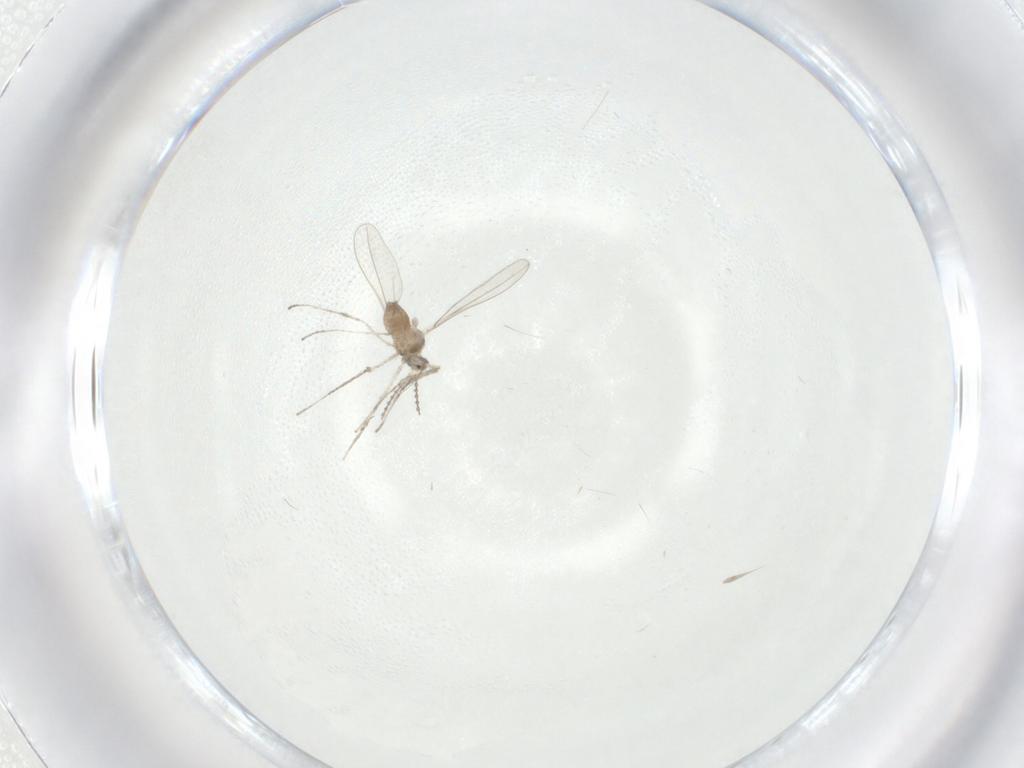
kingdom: Animalia
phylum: Arthropoda
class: Insecta
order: Diptera
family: Cecidomyiidae
